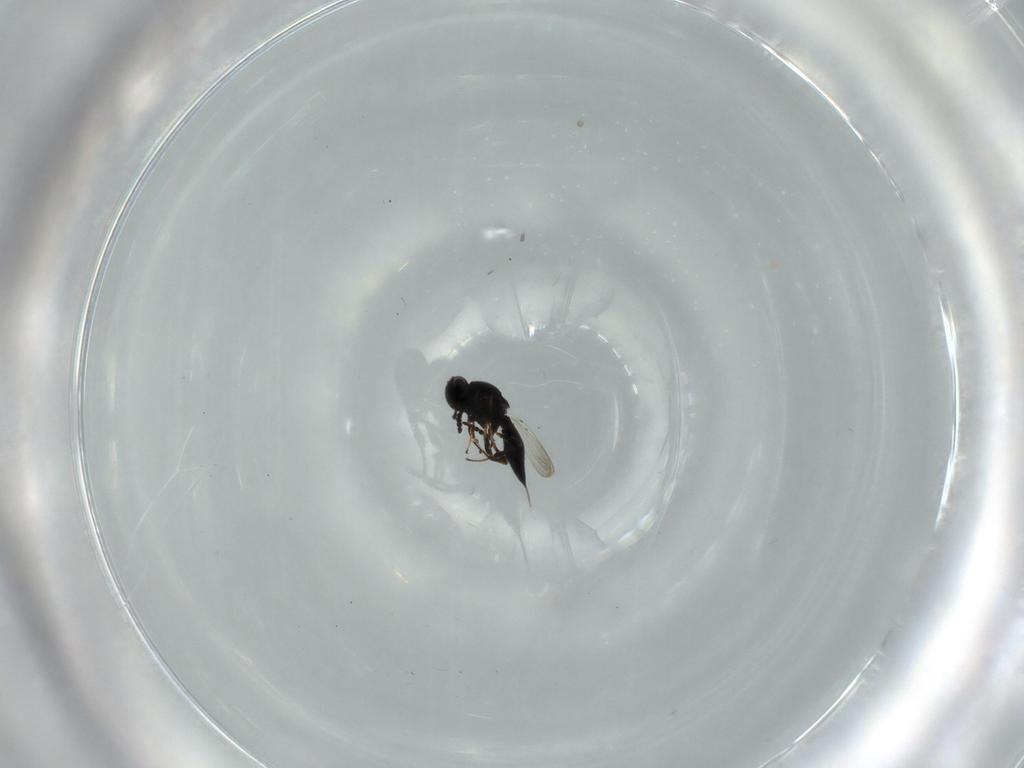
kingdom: Animalia
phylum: Arthropoda
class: Insecta
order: Hymenoptera
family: Platygastridae
